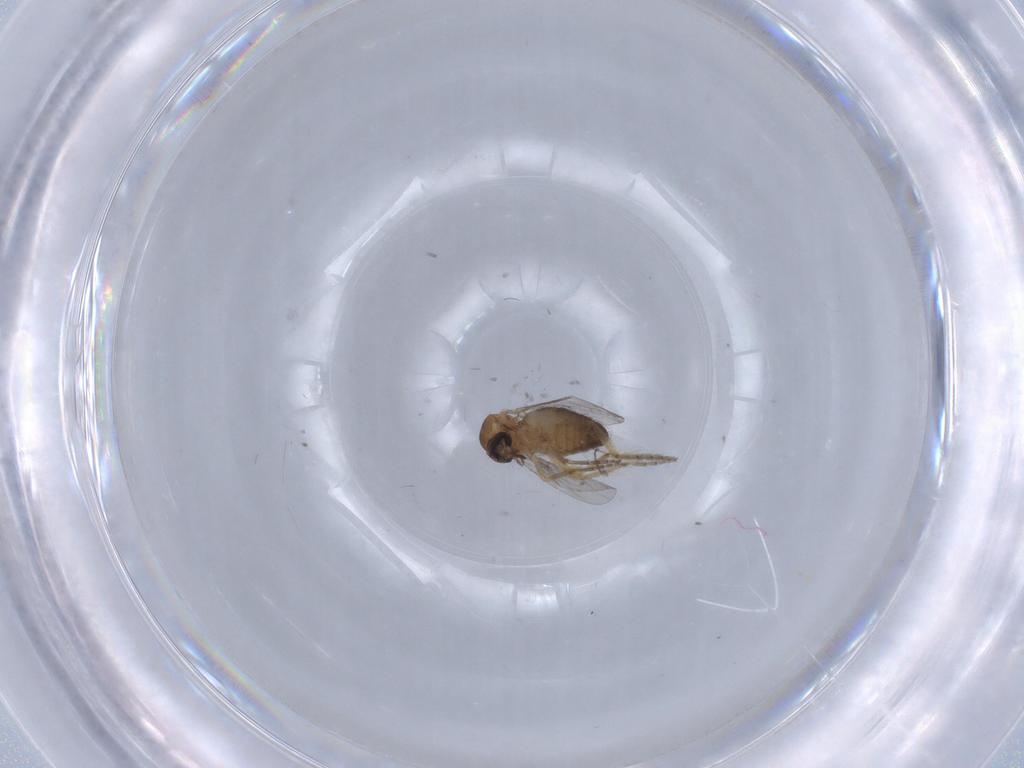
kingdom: Animalia
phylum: Arthropoda
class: Insecta
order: Diptera
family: Ceratopogonidae
